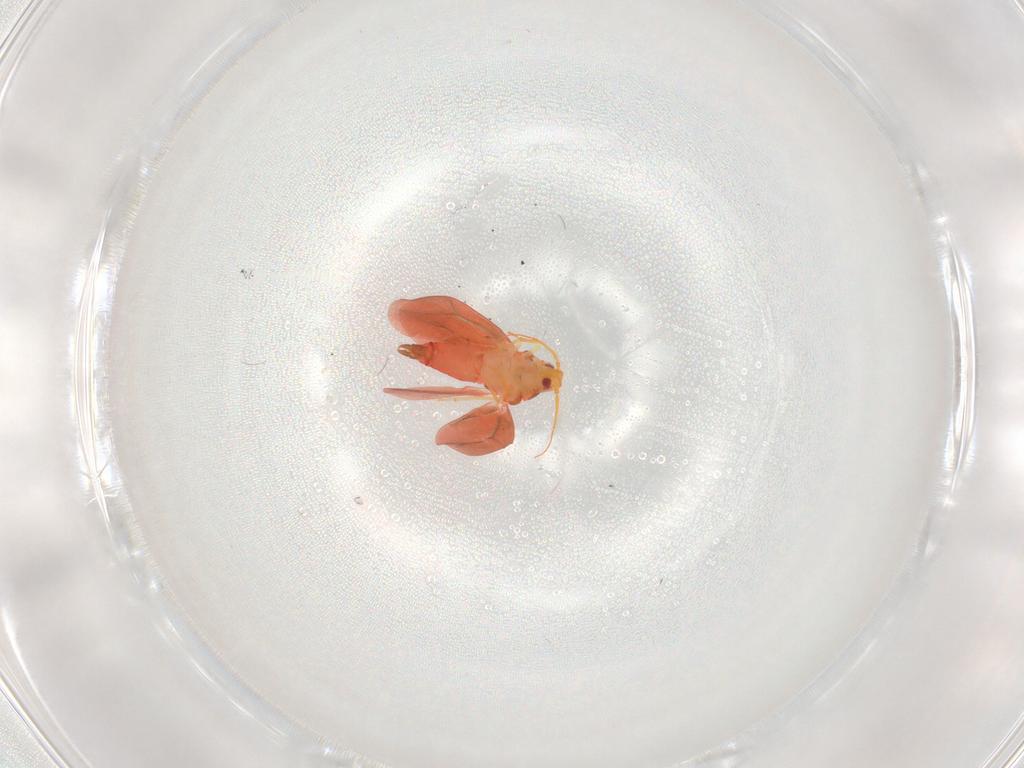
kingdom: Animalia
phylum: Arthropoda
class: Insecta
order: Hemiptera
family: Aleyrodidae
